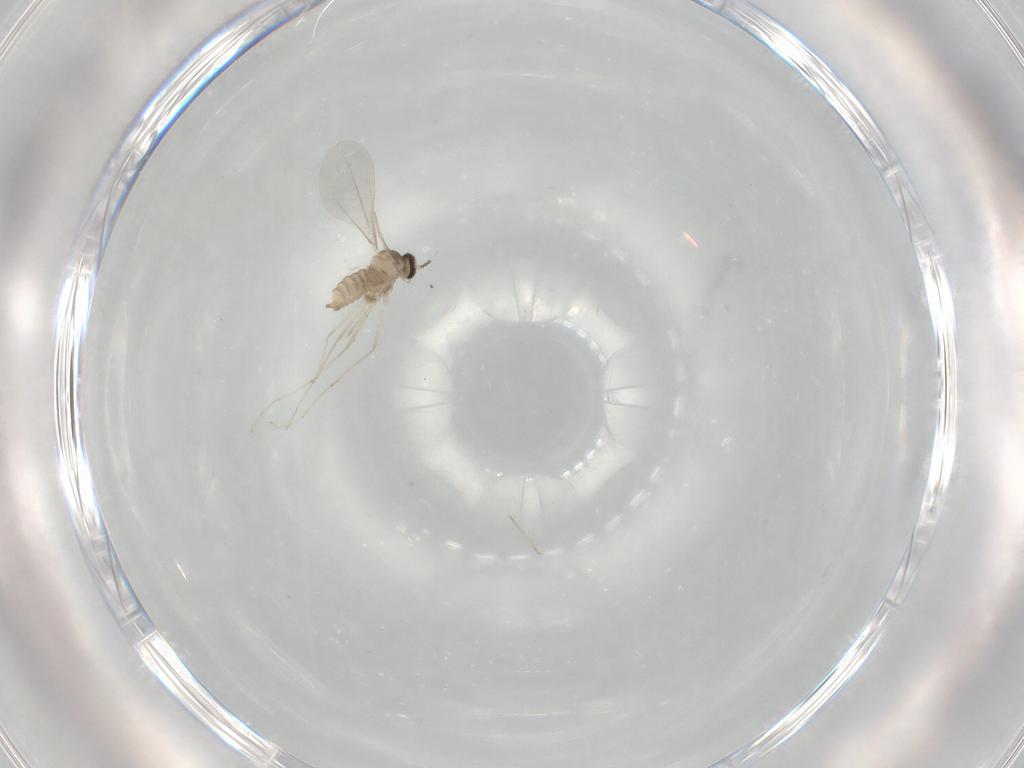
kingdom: Animalia
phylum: Arthropoda
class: Insecta
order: Diptera
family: Cecidomyiidae
